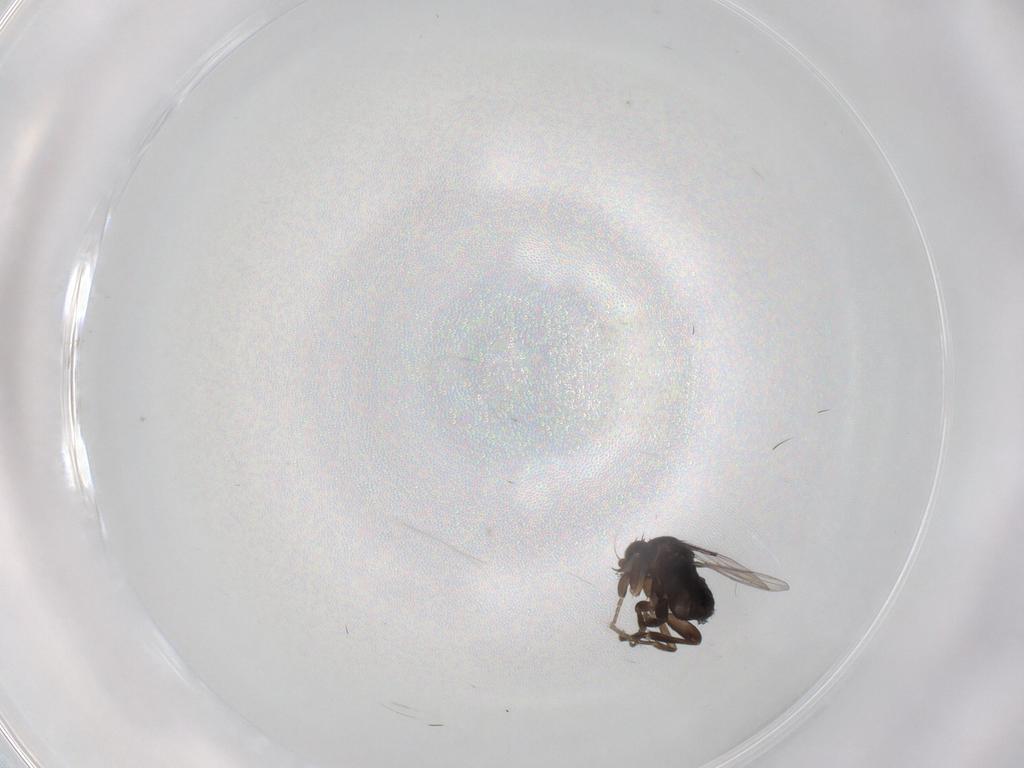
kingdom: Animalia
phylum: Arthropoda
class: Insecta
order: Diptera
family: Phoridae
